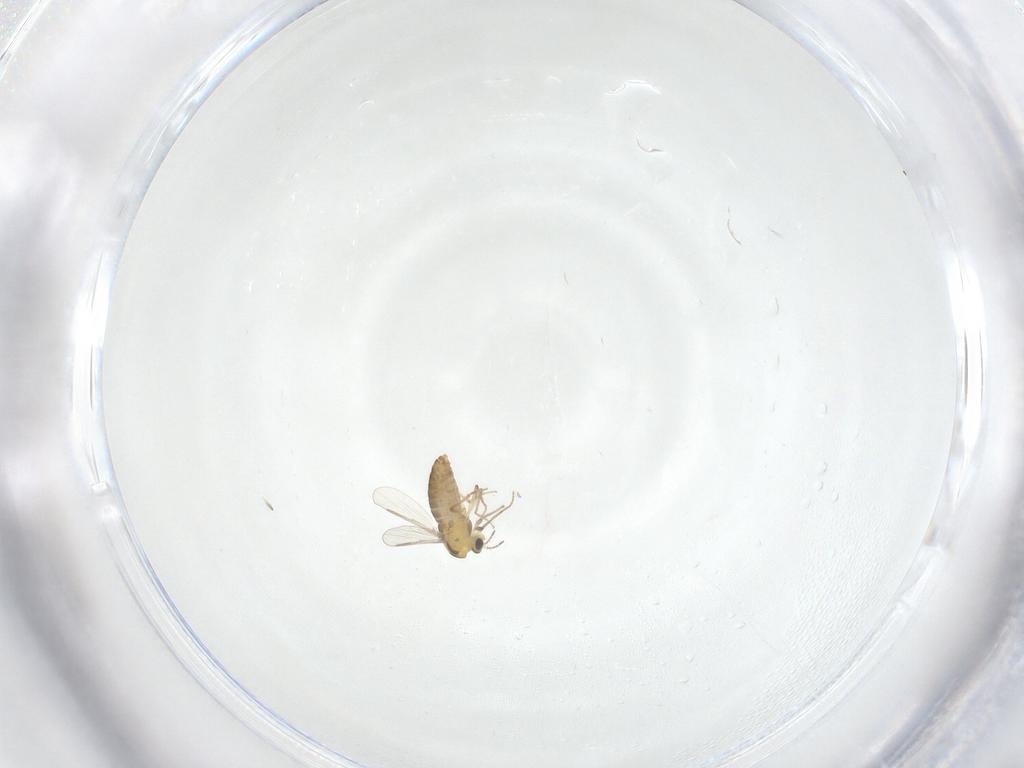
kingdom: Animalia
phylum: Arthropoda
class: Insecta
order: Diptera
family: Chironomidae
